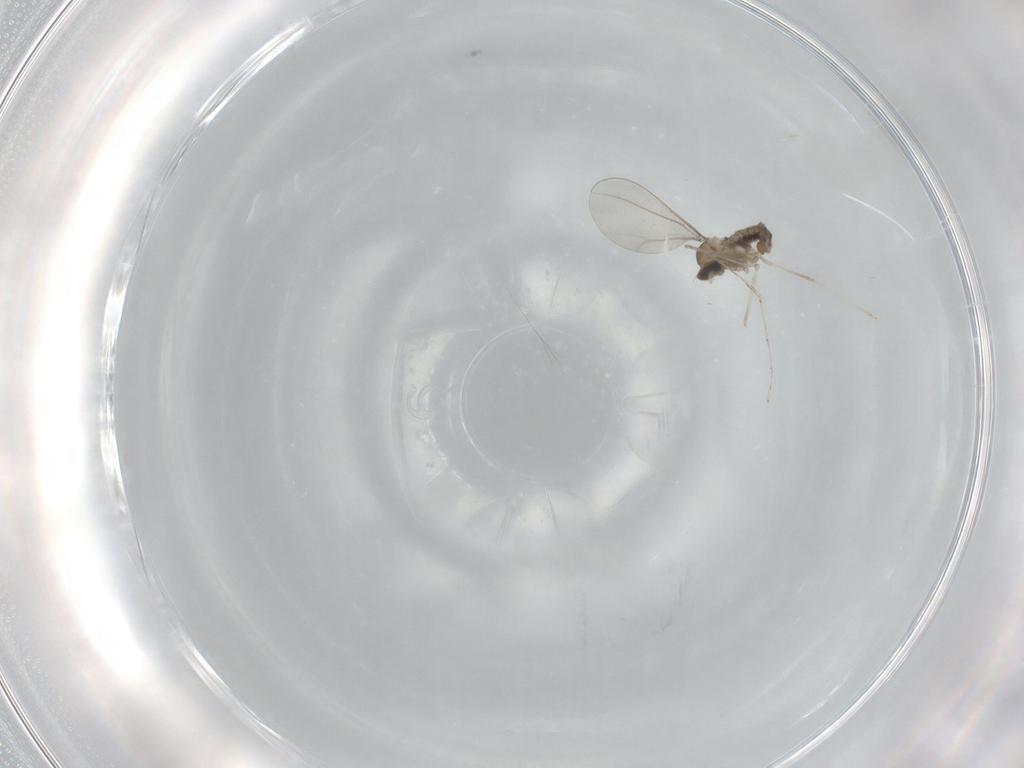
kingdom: Animalia
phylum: Arthropoda
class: Insecta
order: Diptera
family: Cecidomyiidae
